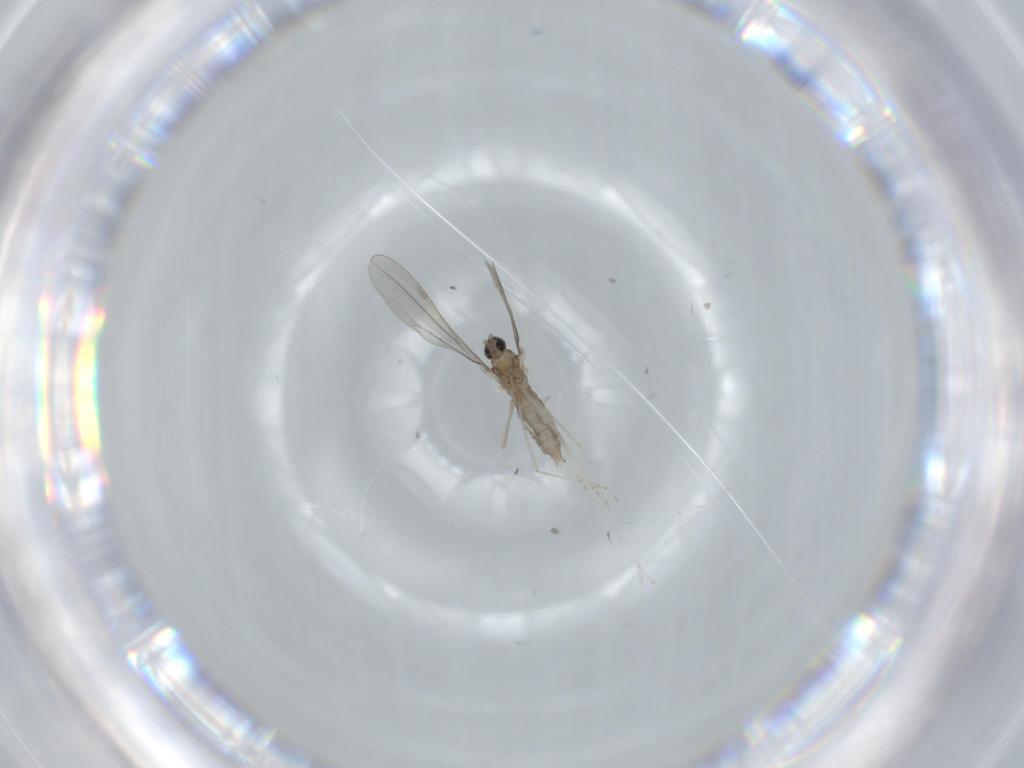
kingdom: Animalia
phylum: Arthropoda
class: Insecta
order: Diptera
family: Cecidomyiidae
